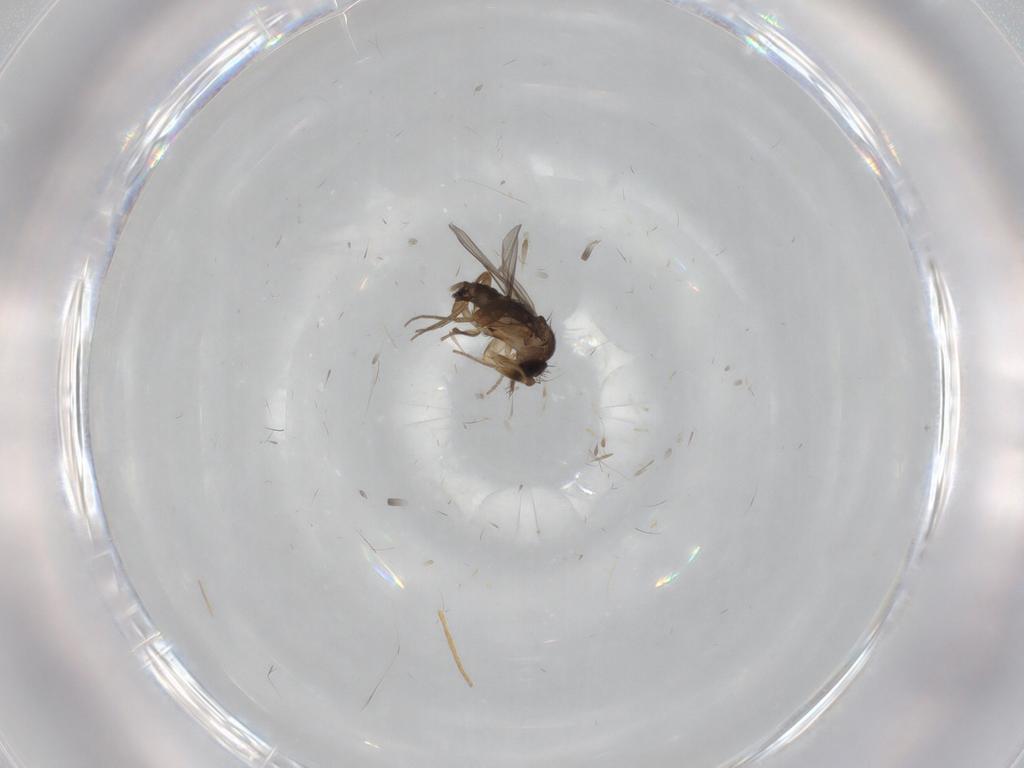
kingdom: Animalia
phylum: Arthropoda
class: Insecta
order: Diptera
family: Phoridae
